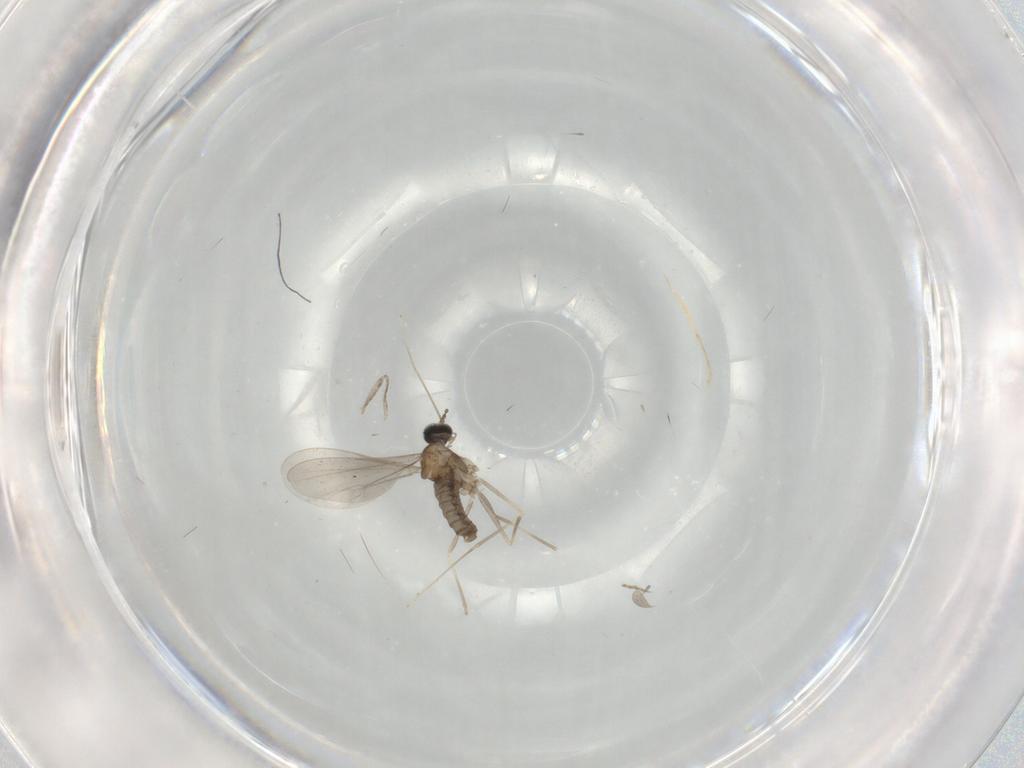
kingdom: Animalia
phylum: Arthropoda
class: Insecta
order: Diptera
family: Cecidomyiidae
